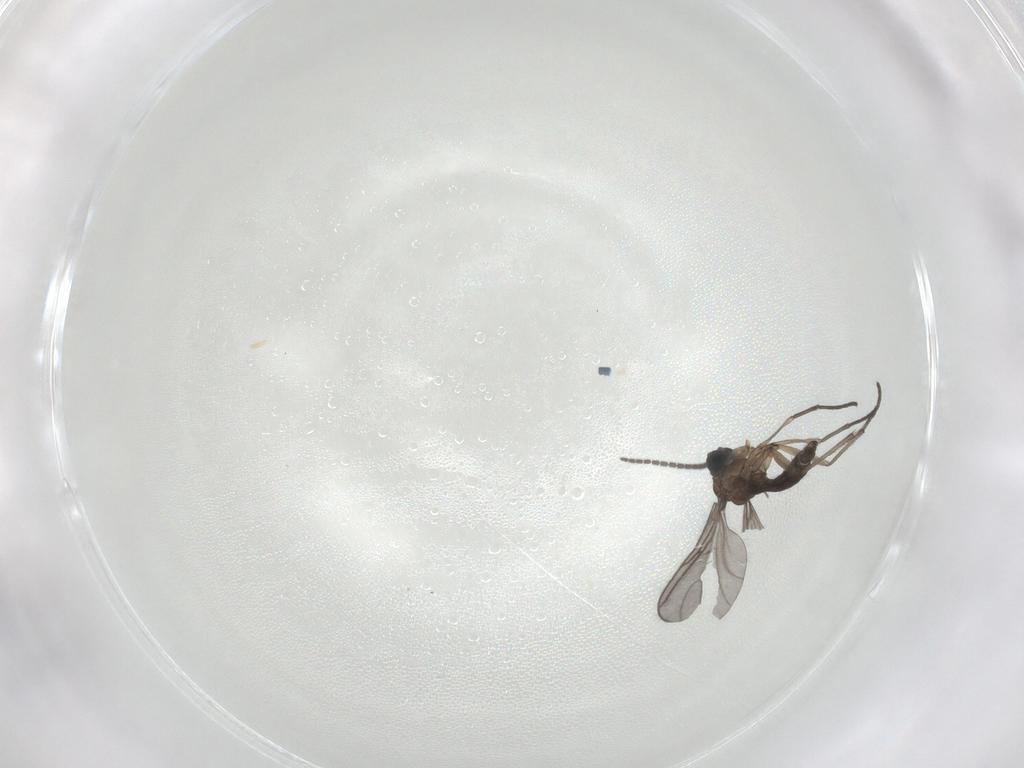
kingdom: Animalia
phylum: Arthropoda
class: Insecta
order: Diptera
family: Sciaridae
